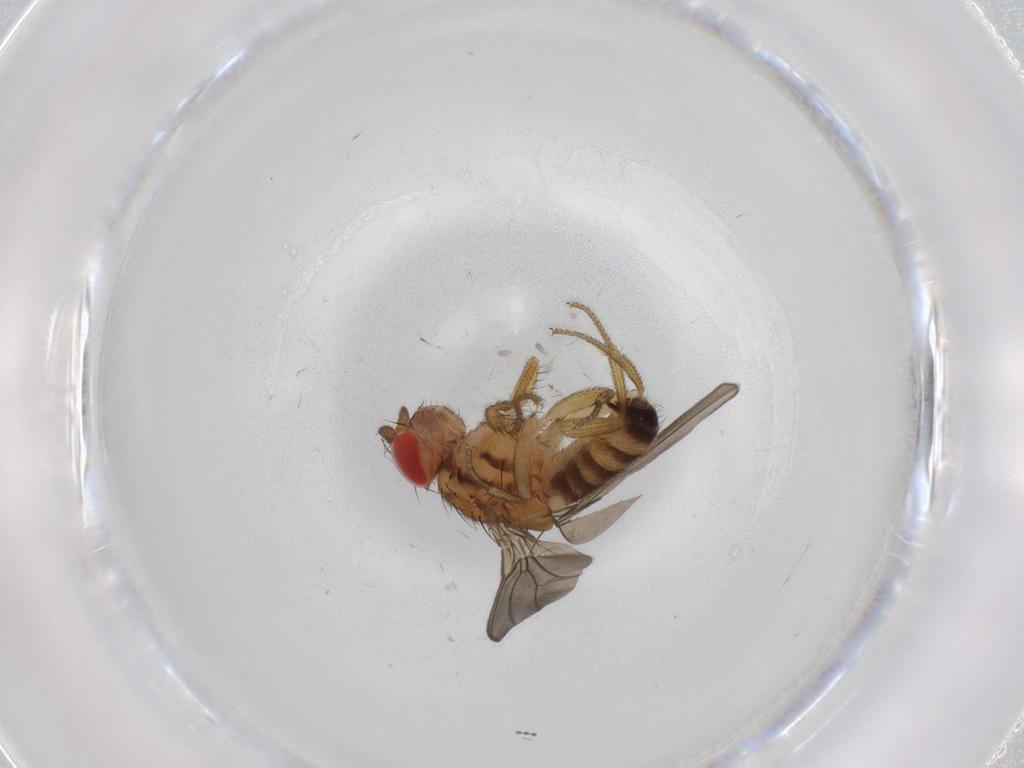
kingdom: Animalia
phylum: Arthropoda
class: Insecta
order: Diptera
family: Drosophilidae
